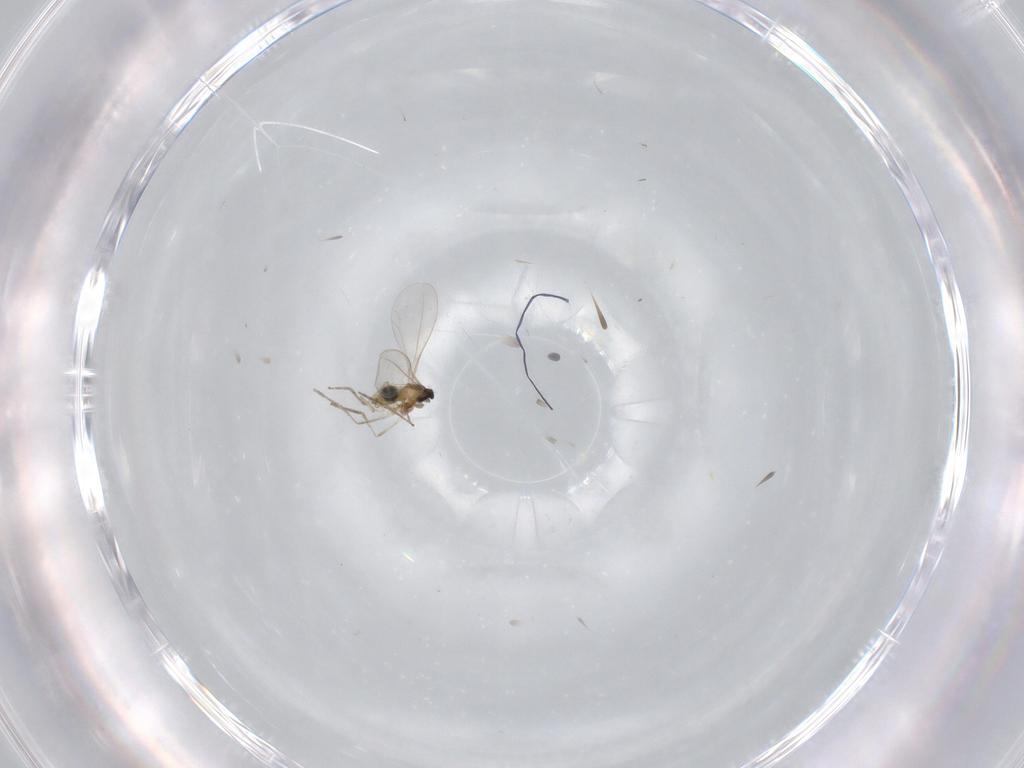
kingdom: Animalia
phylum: Arthropoda
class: Insecta
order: Diptera
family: Cecidomyiidae
